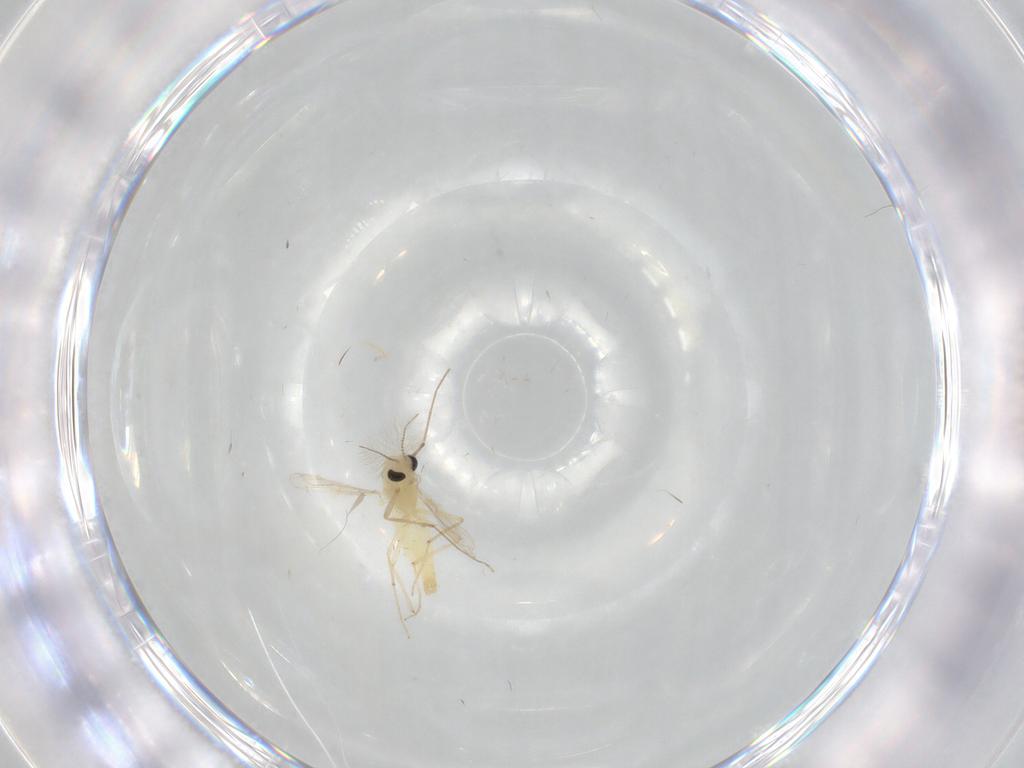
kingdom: Animalia
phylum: Arthropoda
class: Insecta
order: Diptera
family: Chironomidae
